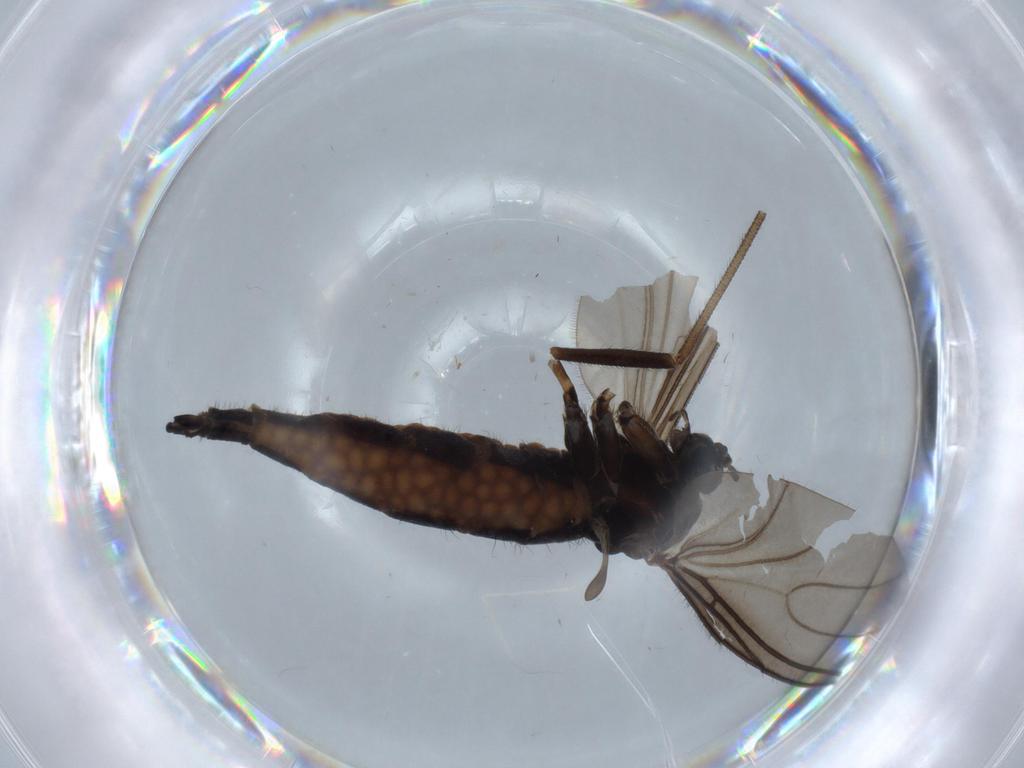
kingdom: Animalia
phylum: Arthropoda
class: Insecta
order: Diptera
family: Sciaridae
